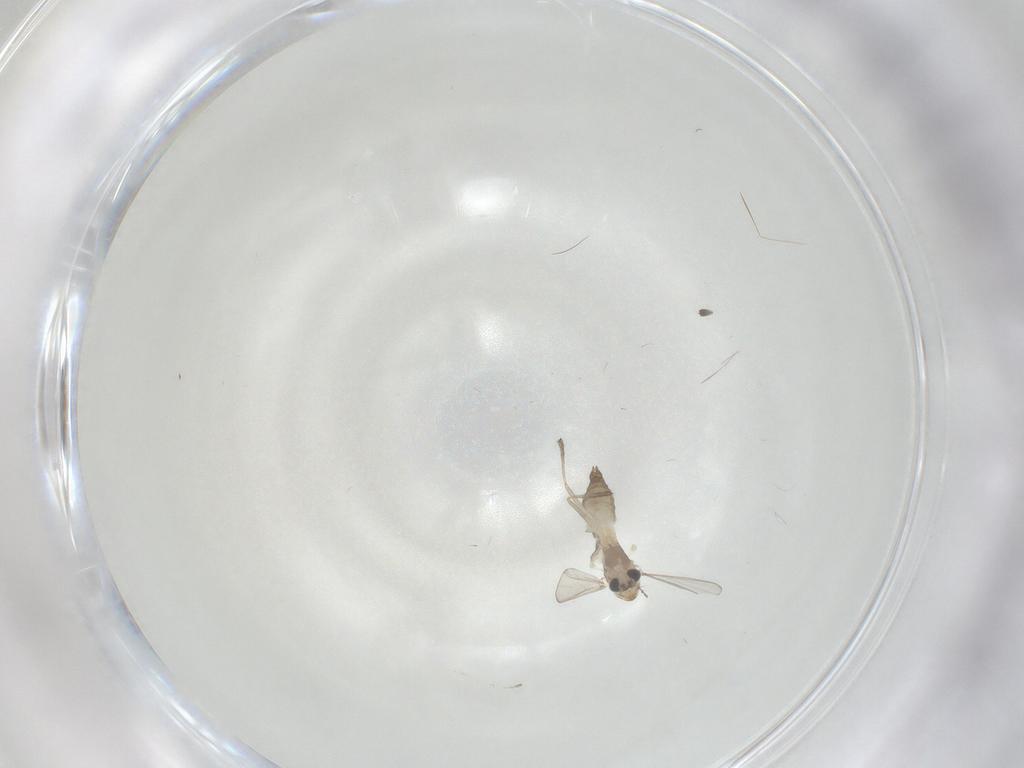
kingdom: Animalia
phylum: Arthropoda
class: Insecta
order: Diptera
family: Chironomidae
